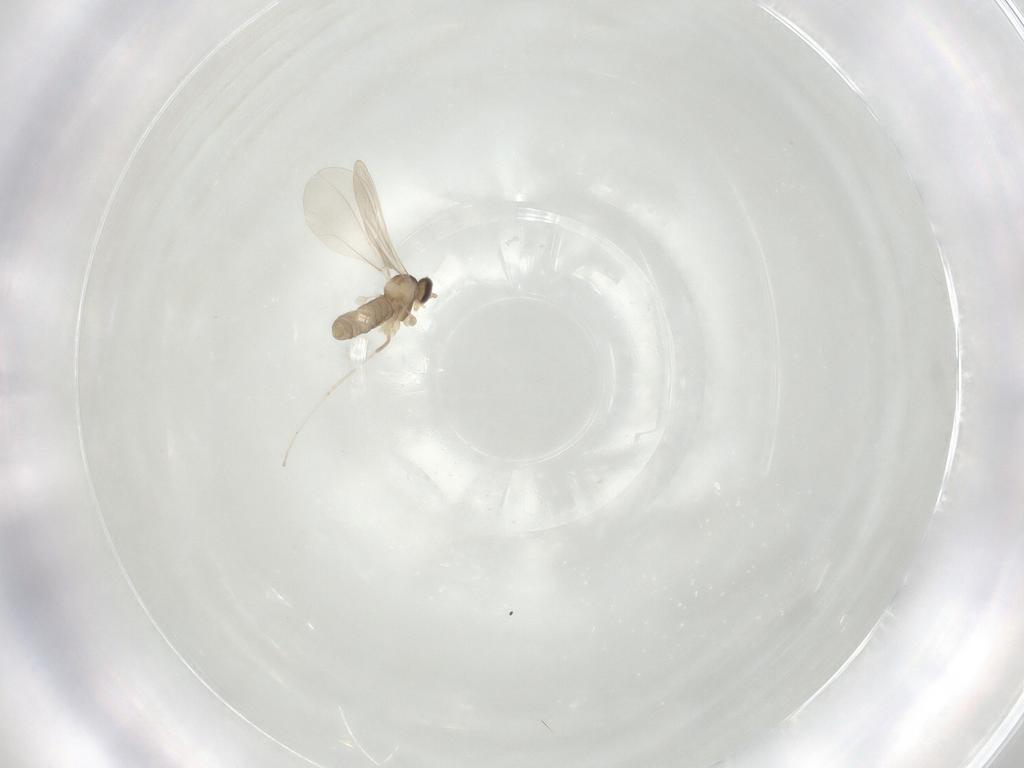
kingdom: Animalia
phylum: Arthropoda
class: Insecta
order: Diptera
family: Cecidomyiidae
